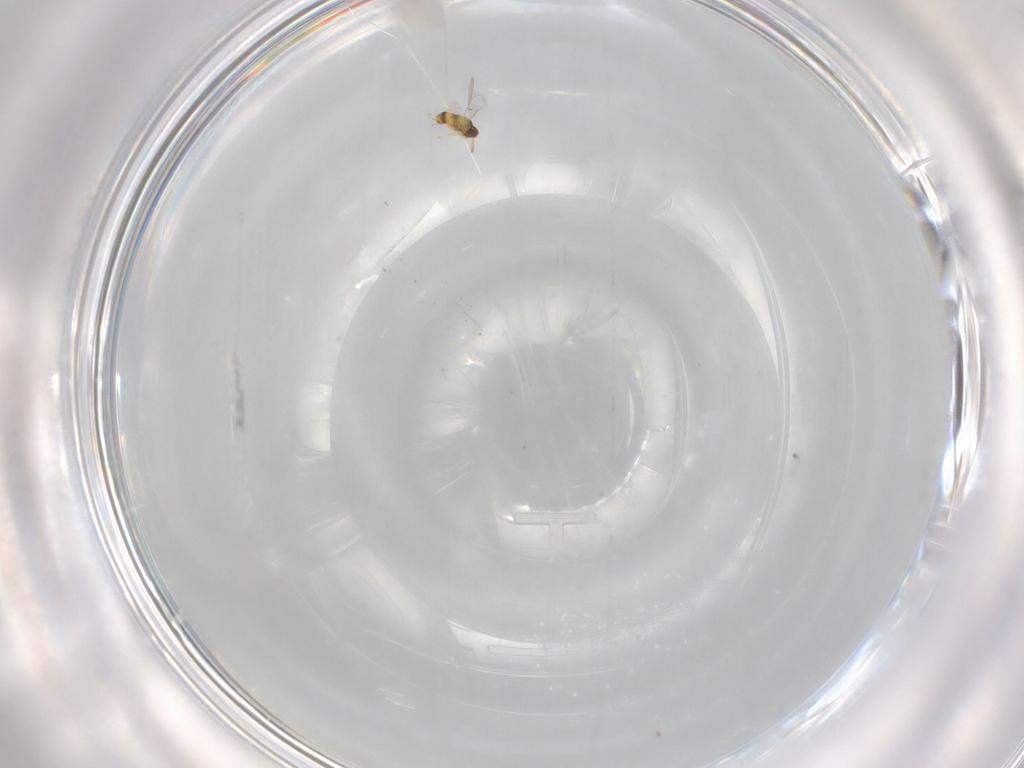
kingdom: Animalia
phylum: Arthropoda
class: Insecta
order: Hymenoptera
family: Aphelinidae
